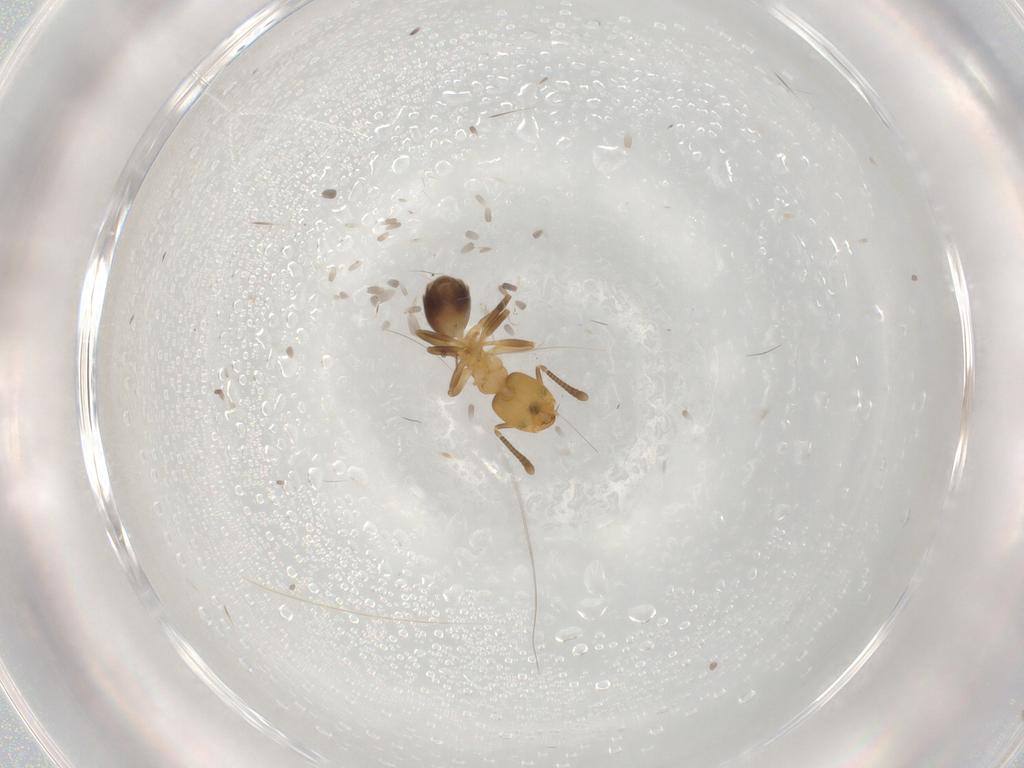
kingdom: Animalia
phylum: Arthropoda
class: Insecta
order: Hymenoptera
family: Formicidae
